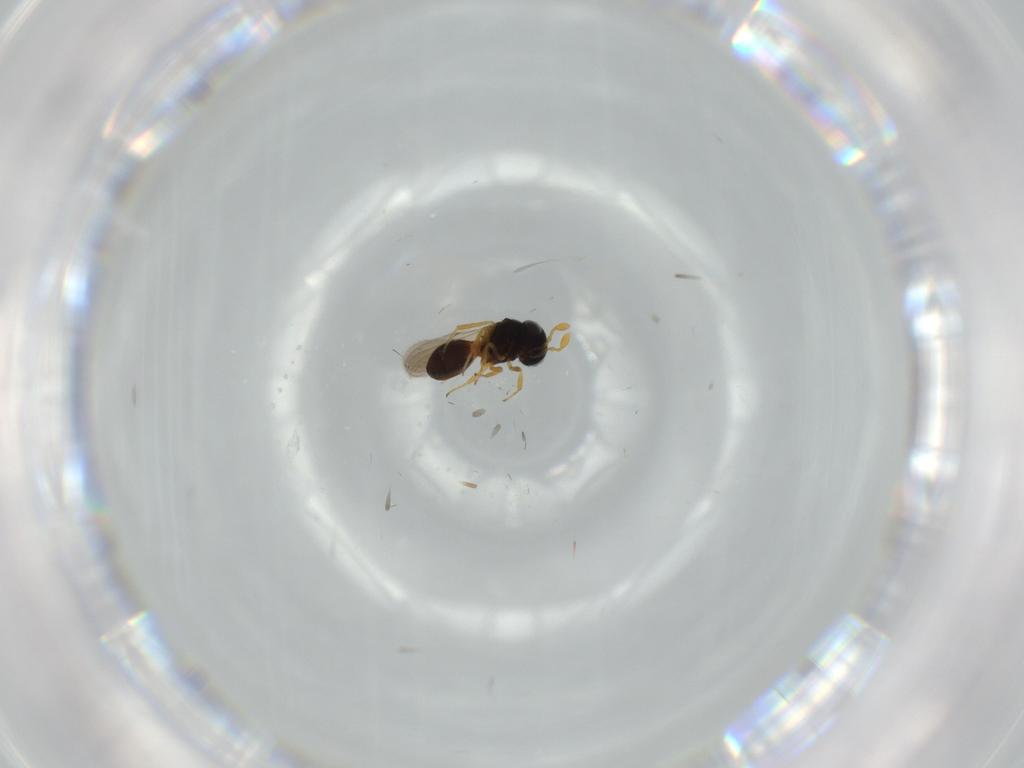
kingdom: Animalia
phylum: Arthropoda
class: Insecta
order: Hymenoptera
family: Scelionidae
